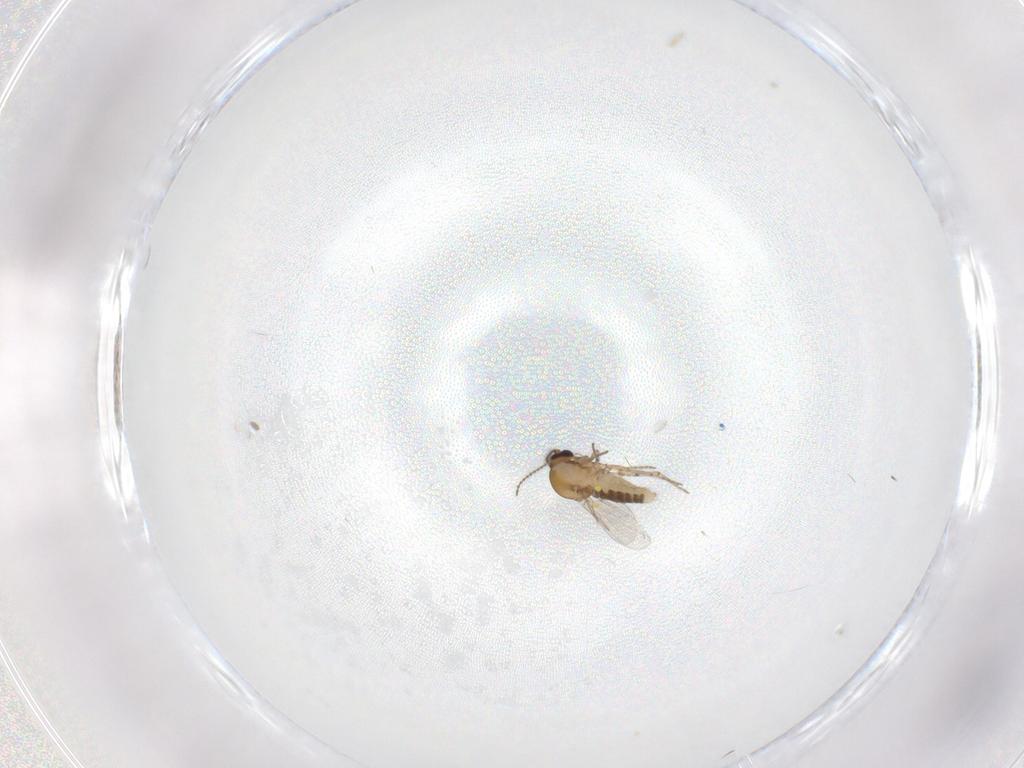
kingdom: Animalia
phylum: Arthropoda
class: Insecta
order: Diptera
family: Ceratopogonidae
